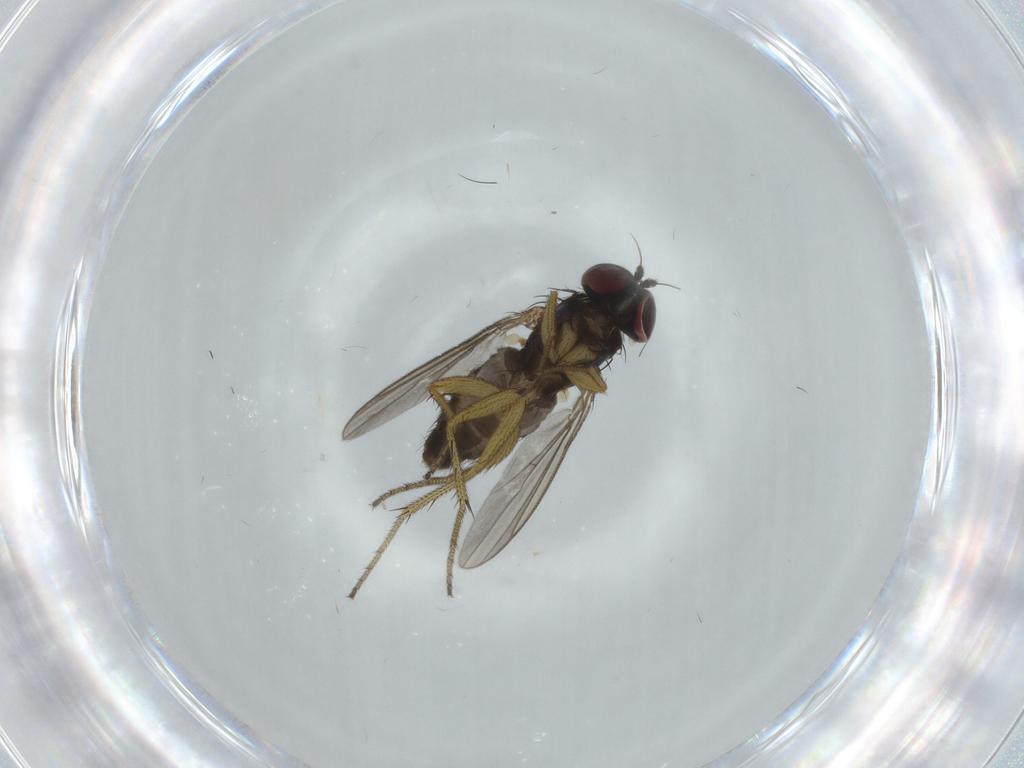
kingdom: Animalia
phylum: Arthropoda
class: Insecta
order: Diptera
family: Dolichopodidae
